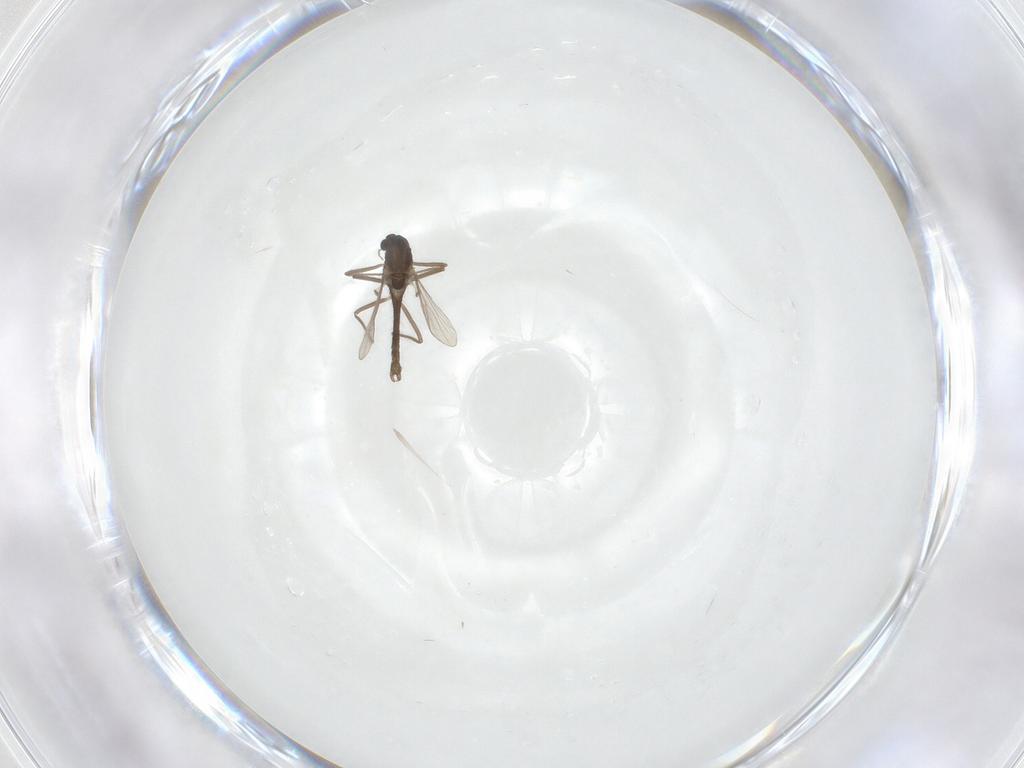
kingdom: Animalia
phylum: Arthropoda
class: Insecta
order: Diptera
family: Chironomidae
